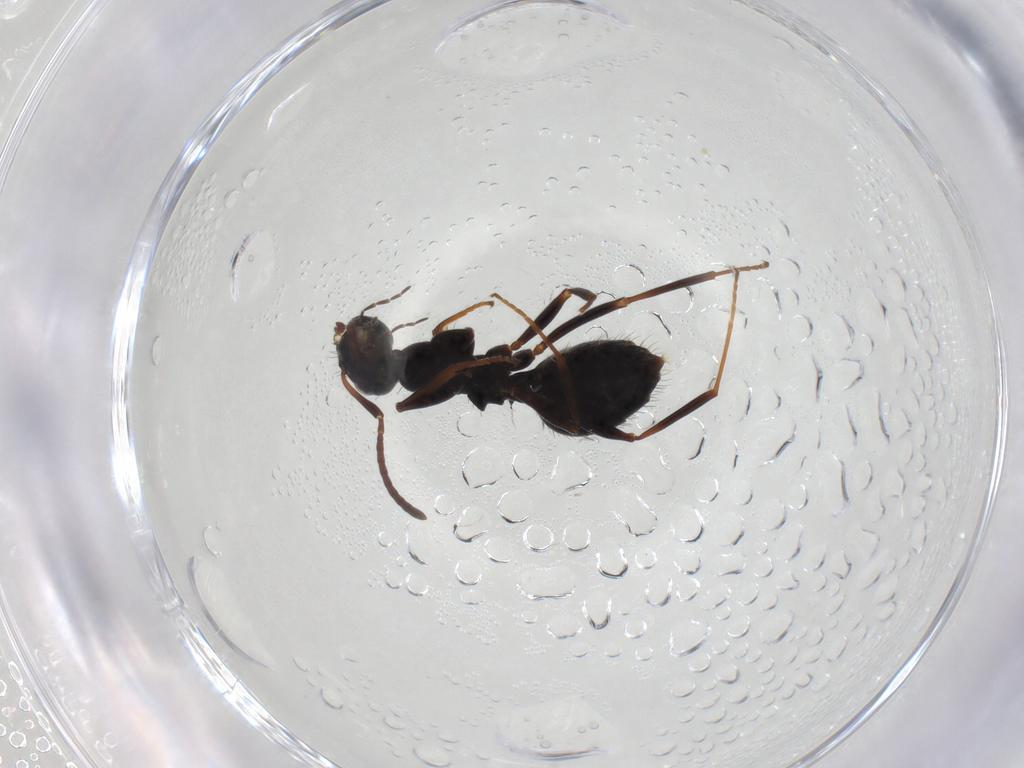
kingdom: Animalia
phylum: Arthropoda
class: Insecta
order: Hymenoptera
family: Formicidae
